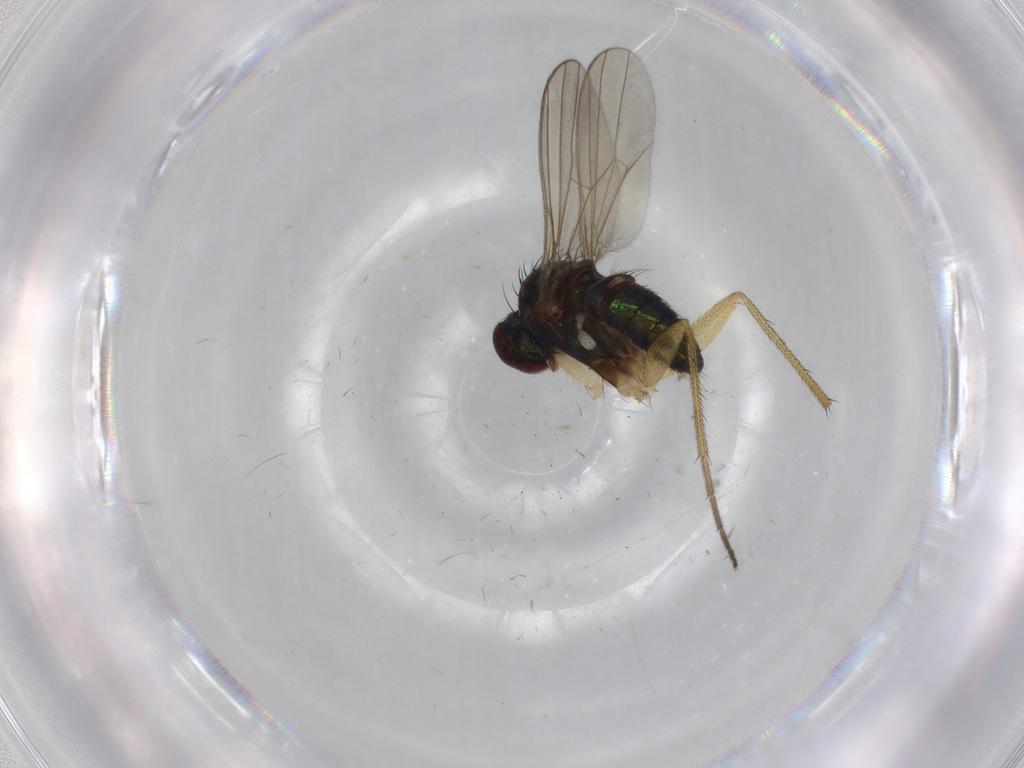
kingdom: Animalia
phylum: Arthropoda
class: Insecta
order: Diptera
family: Dolichopodidae
